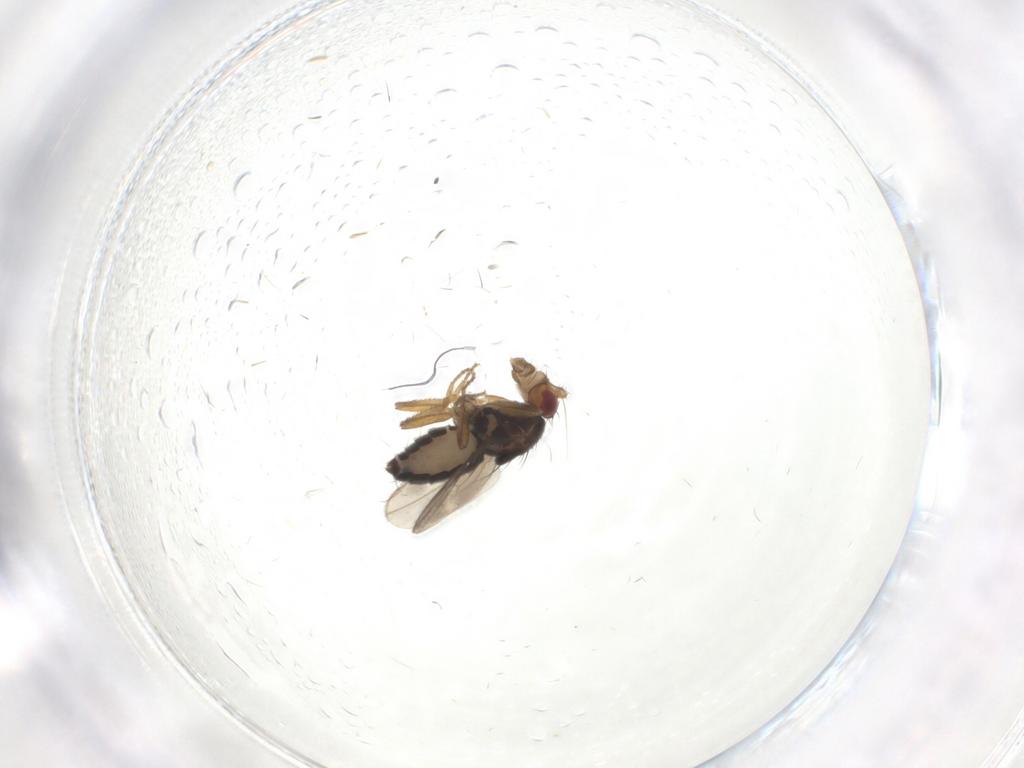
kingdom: Animalia
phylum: Arthropoda
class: Insecta
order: Diptera
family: Sphaeroceridae
